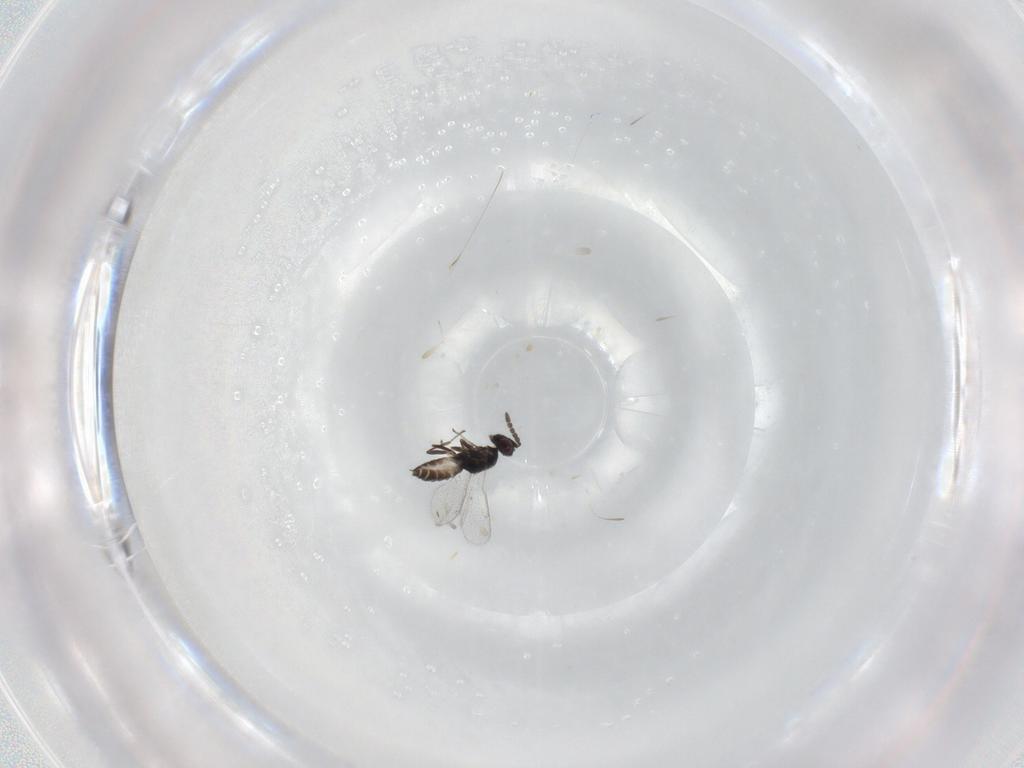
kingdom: Animalia
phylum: Arthropoda
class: Insecta
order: Hymenoptera
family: Eulophidae
